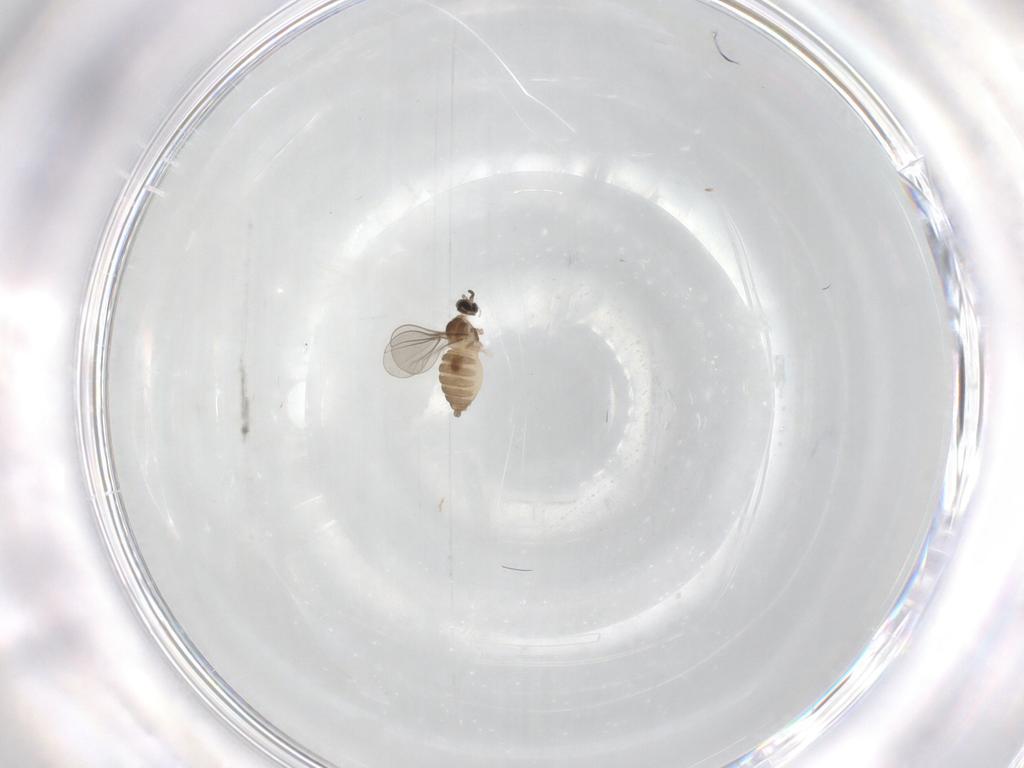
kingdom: Animalia
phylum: Arthropoda
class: Insecta
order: Diptera
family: Cecidomyiidae
